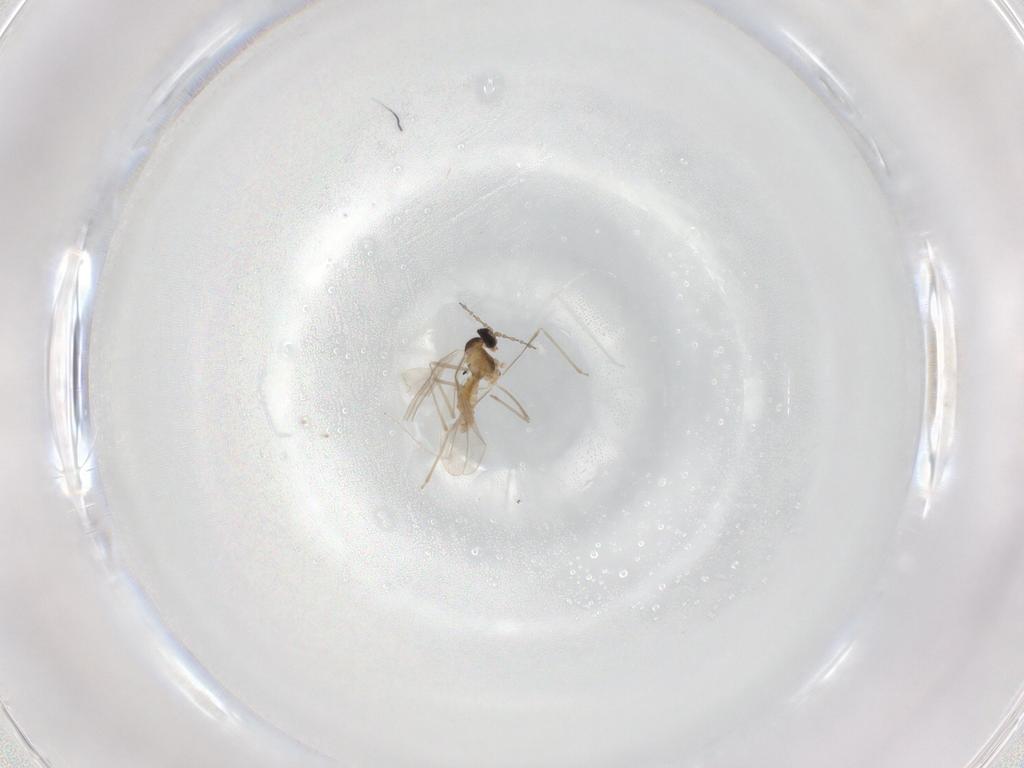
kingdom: Animalia
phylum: Arthropoda
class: Insecta
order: Diptera
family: Cecidomyiidae
